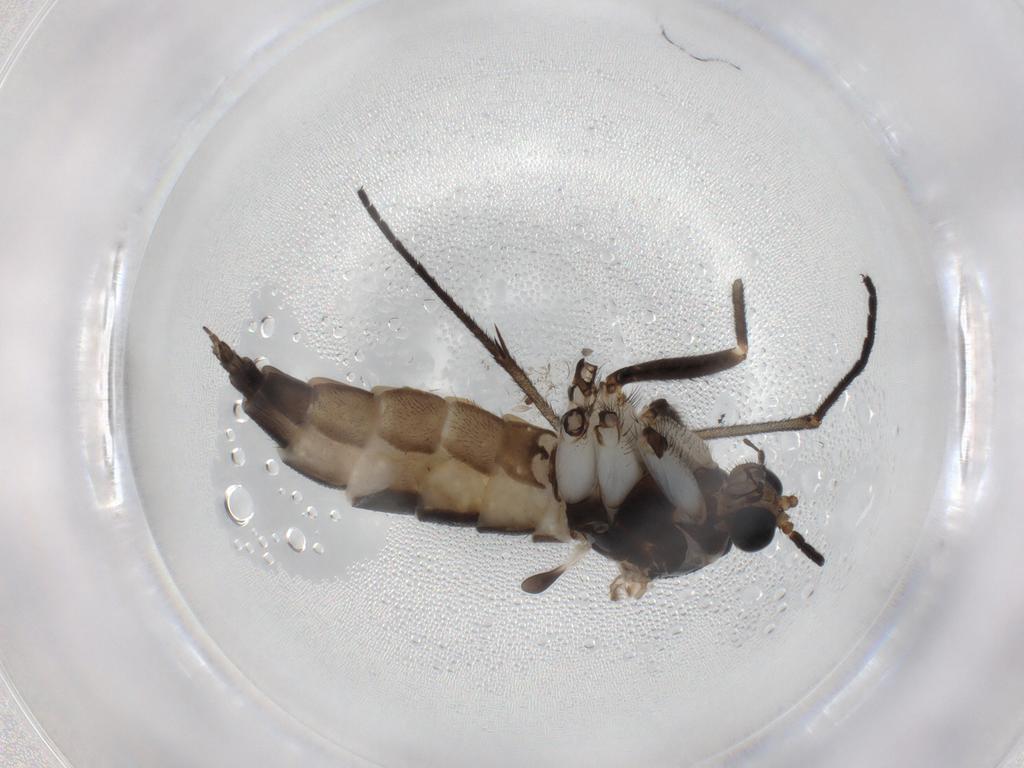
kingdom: Animalia
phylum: Arthropoda
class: Insecta
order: Diptera
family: Sciaridae
